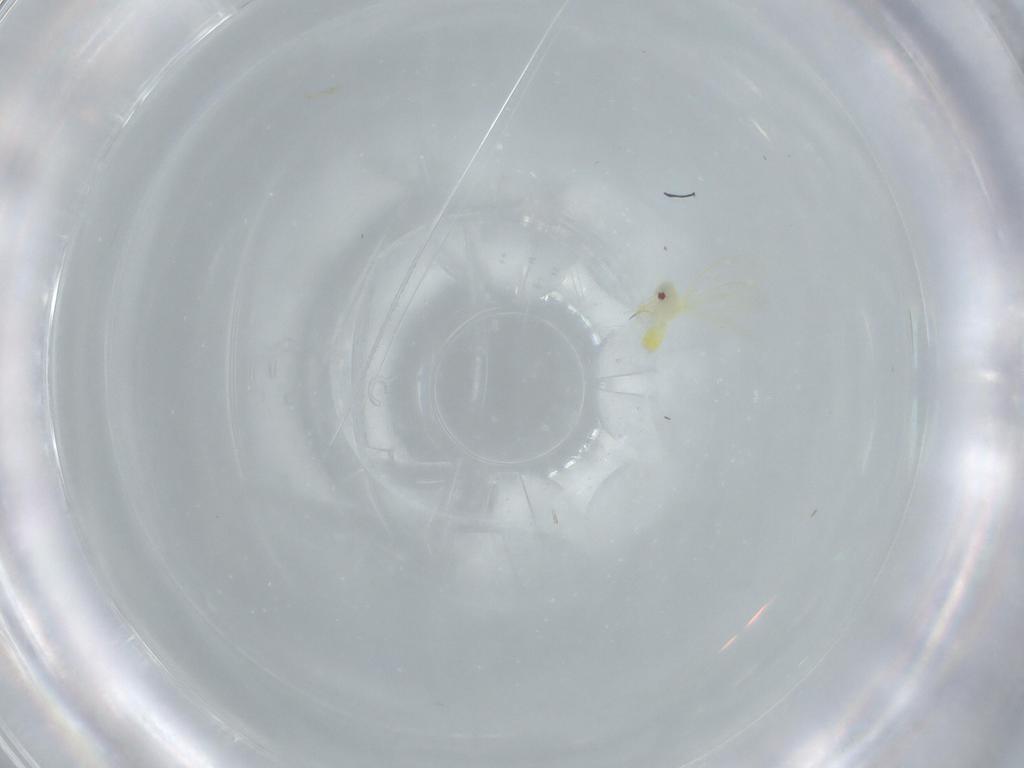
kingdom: Animalia
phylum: Arthropoda
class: Insecta
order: Hemiptera
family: Aleyrodidae
